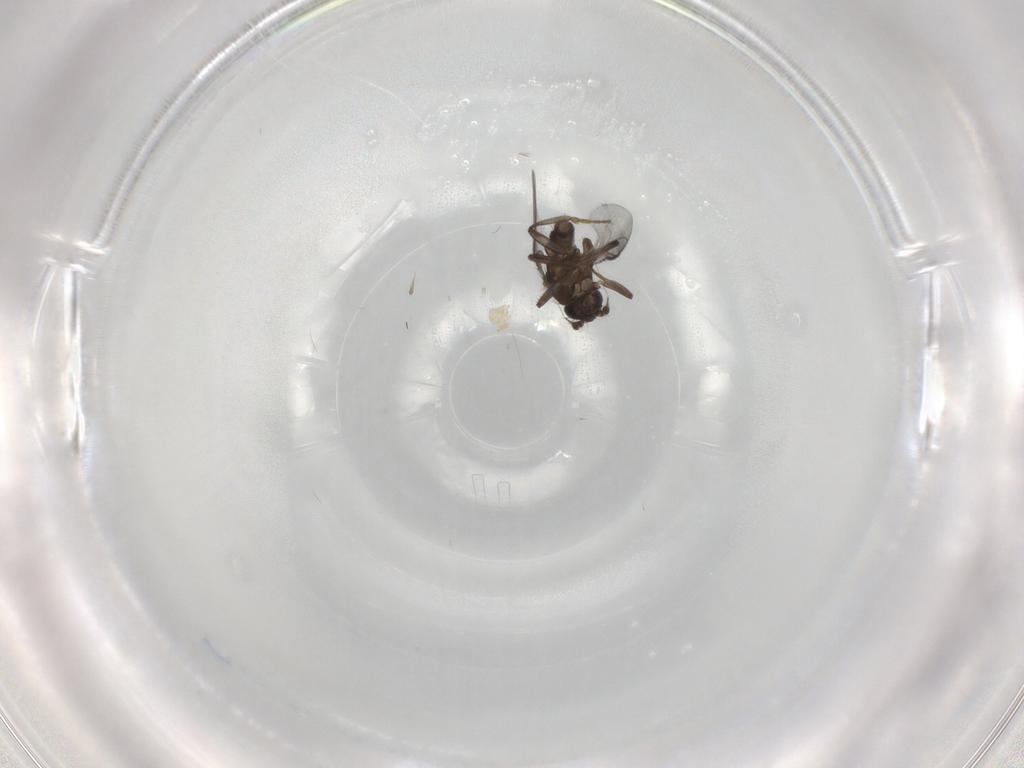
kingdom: Animalia
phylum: Arthropoda
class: Insecta
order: Diptera
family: Sphaeroceridae
